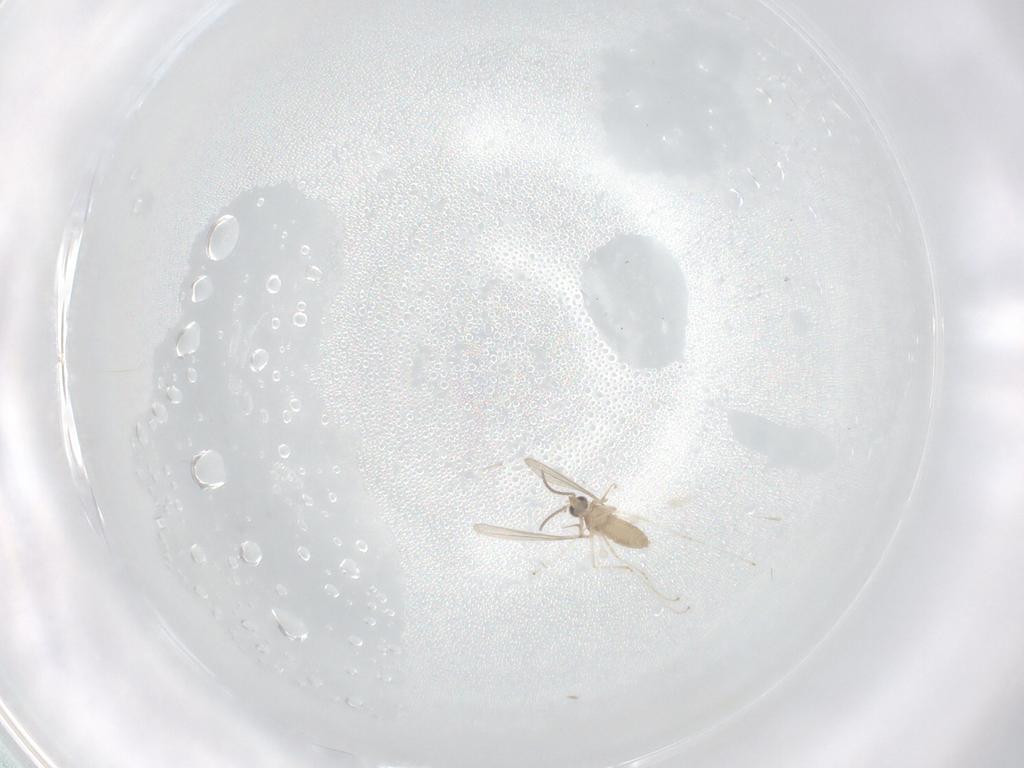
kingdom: Animalia
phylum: Arthropoda
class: Insecta
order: Diptera
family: Cecidomyiidae
